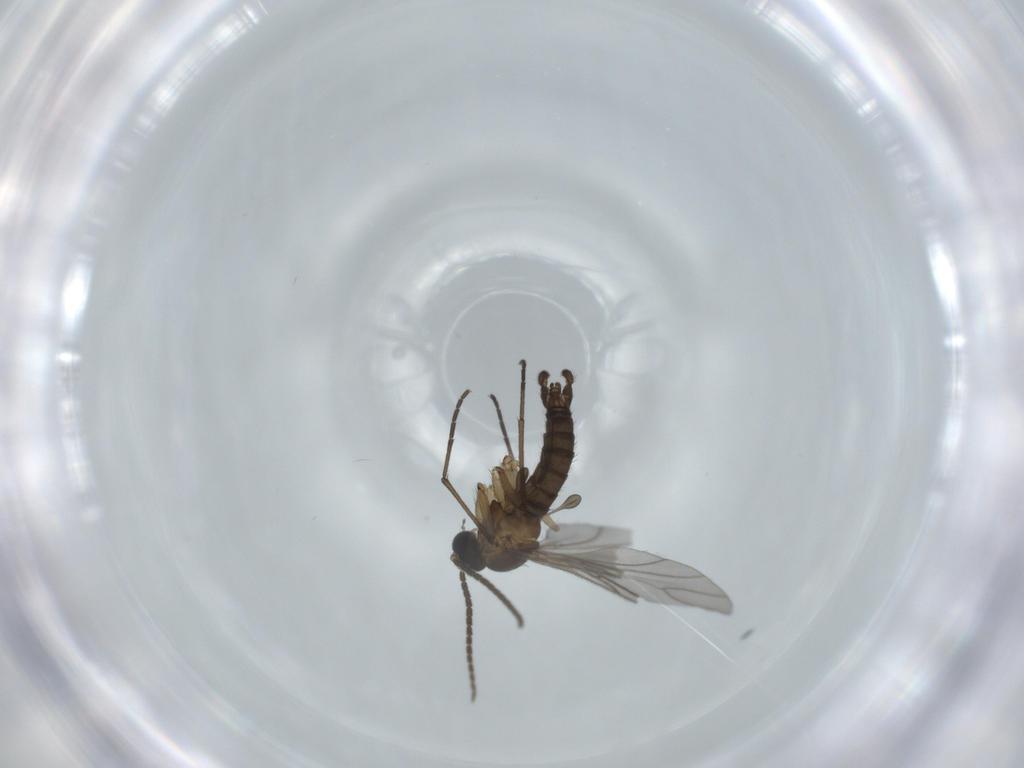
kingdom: Animalia
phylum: Arthropoda
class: Insecta
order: Diptera
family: Sciaridae
